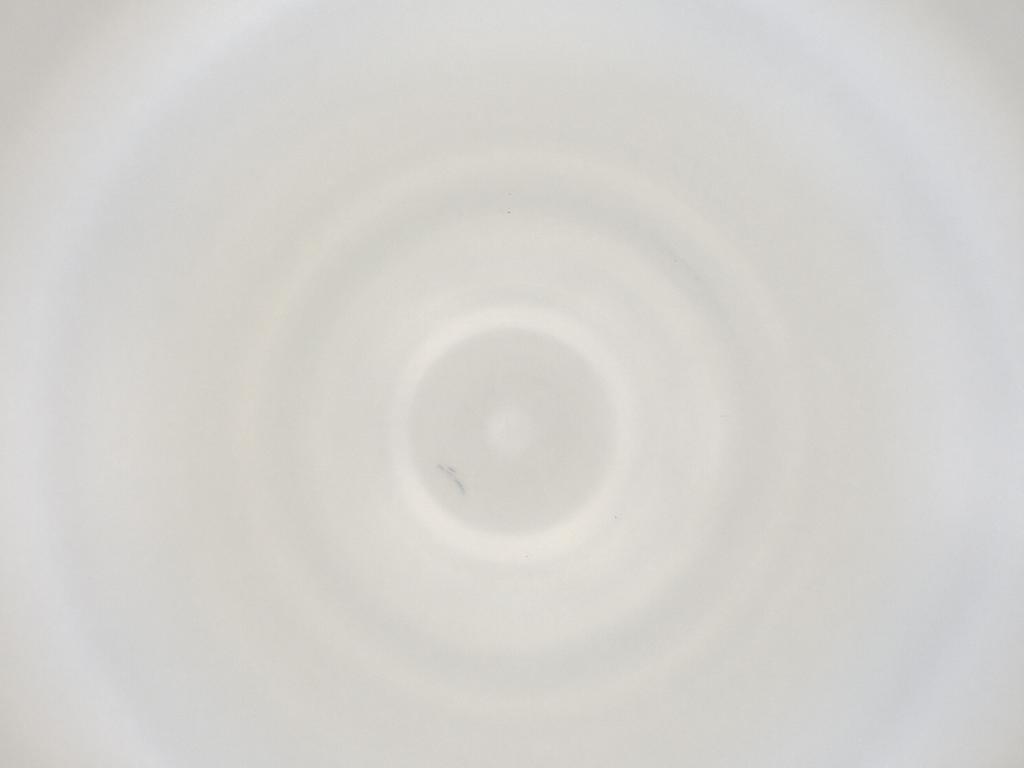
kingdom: Animalia
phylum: Arthropoda
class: Insecta
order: Diptera
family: Cecidomyiidae
